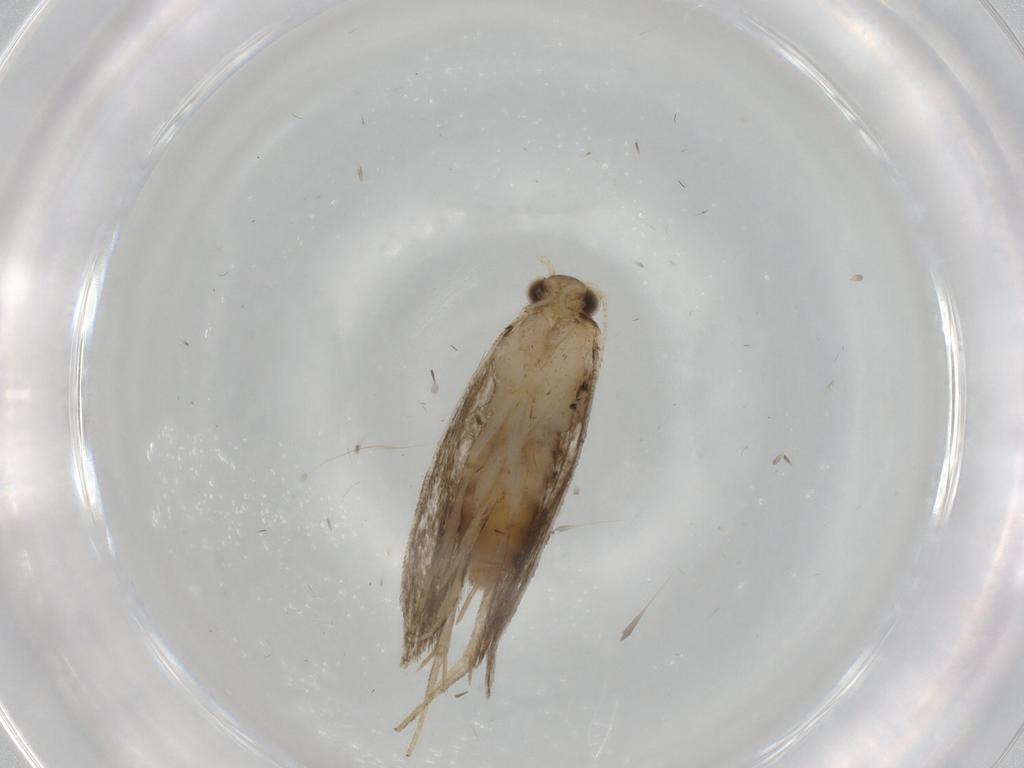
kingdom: Animalia
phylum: Arthropoda
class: Insecta
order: Lepidoptera
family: Tineidae
